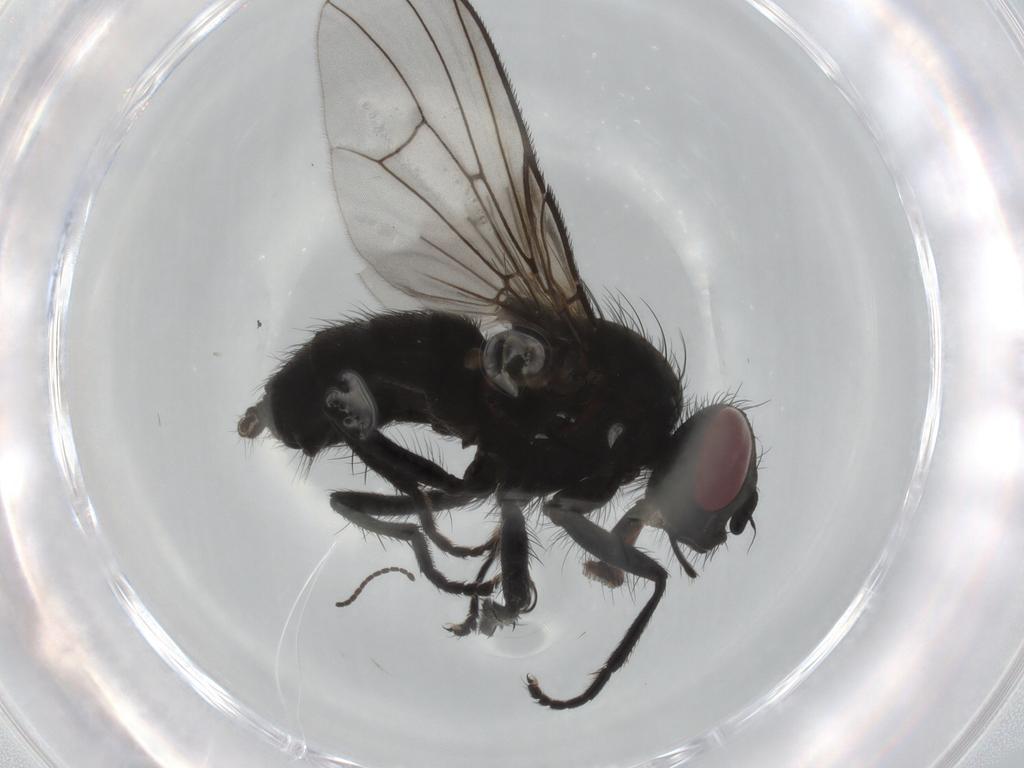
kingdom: Animalia
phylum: Arthropoda
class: Insecta
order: Diptera
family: Muscidae
